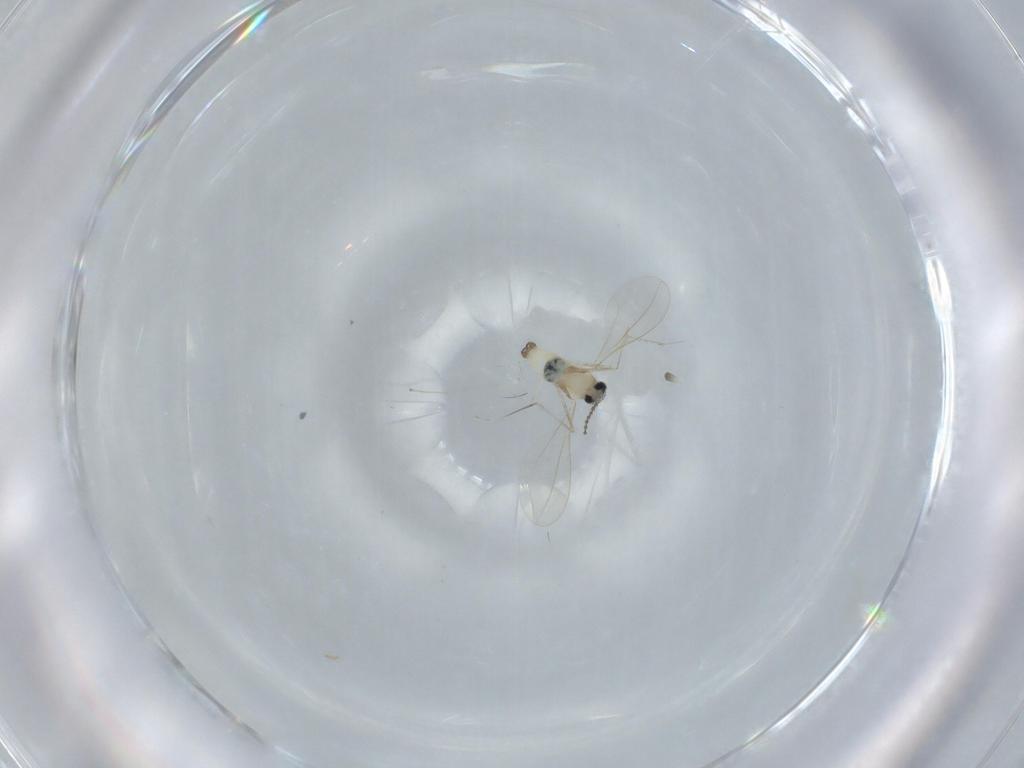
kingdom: Animalia
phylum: Arthropoda
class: Insecta
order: Diptera
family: Cecidomyiidae
